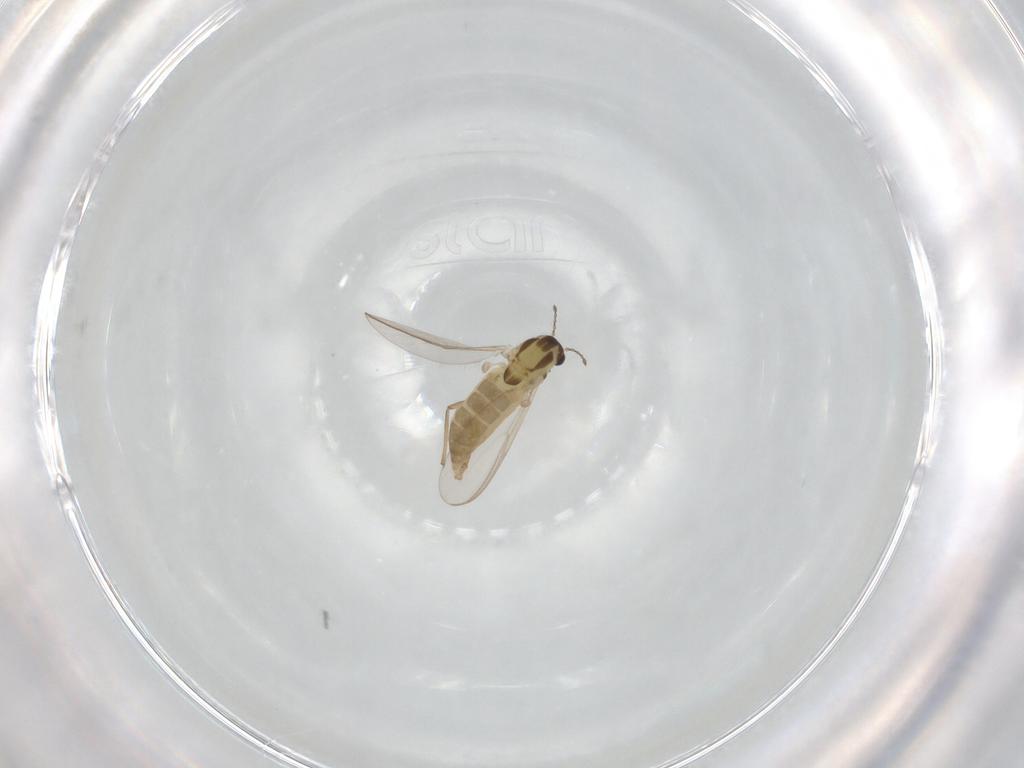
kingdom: Animalia
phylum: Arthropoda
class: Insecta
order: Diptera
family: Chironomidae
